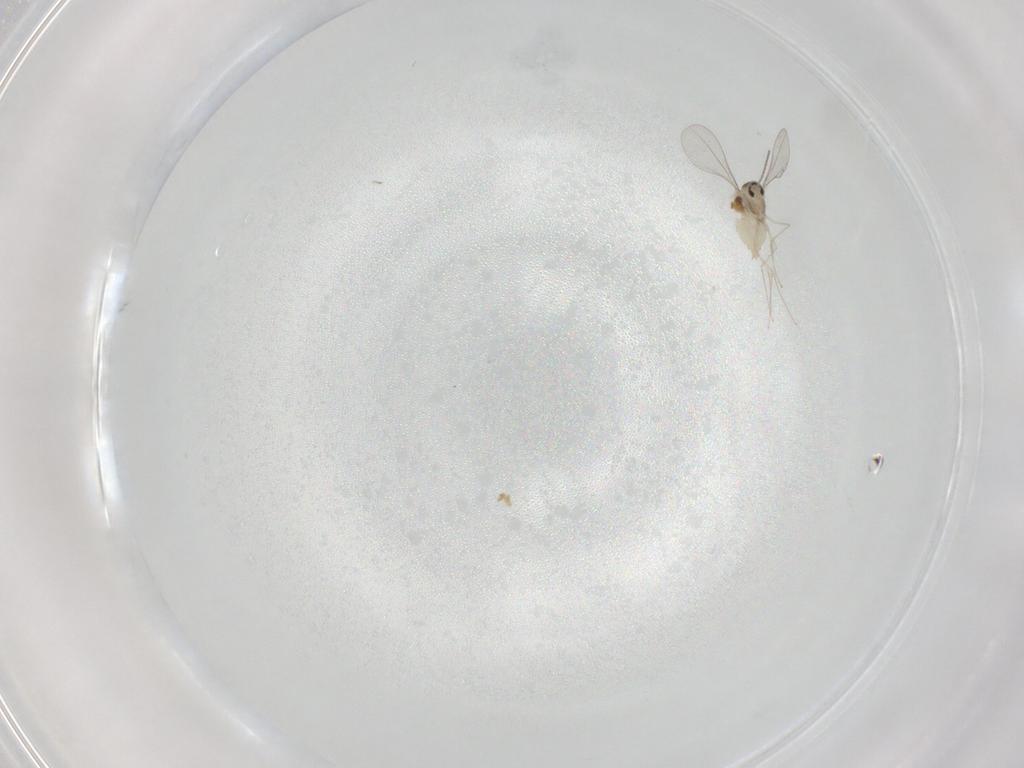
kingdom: Animalia
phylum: Arthropoda
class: Insecta
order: Diptera
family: Cecidomyiidae
